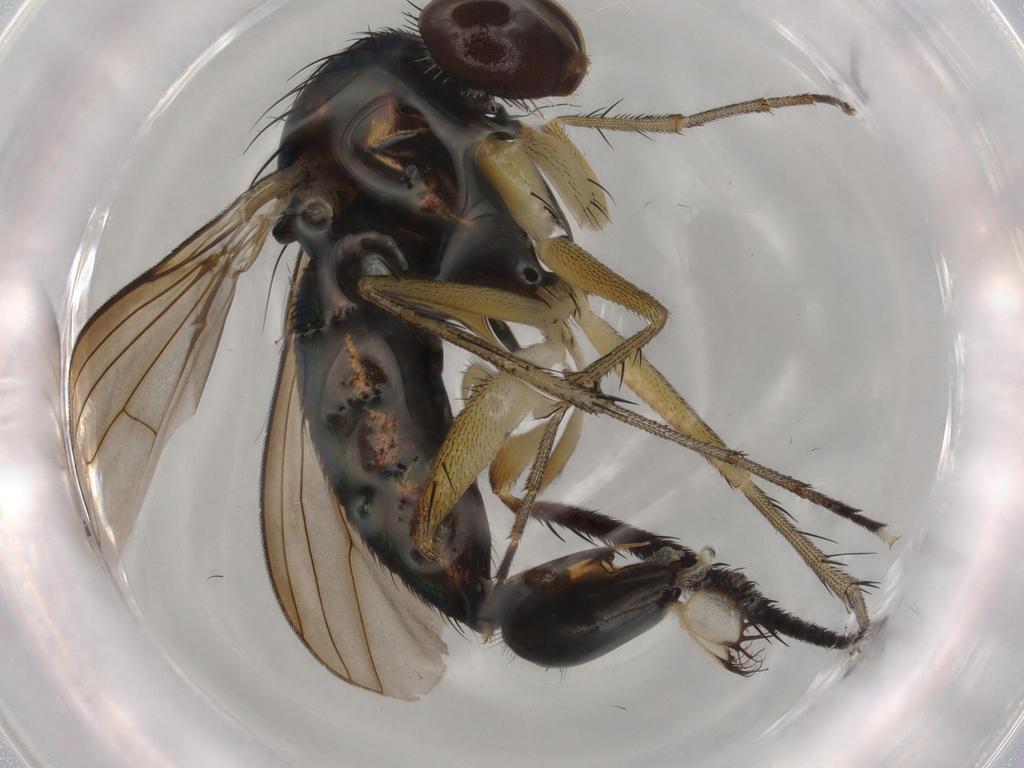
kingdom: Animalia
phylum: Arthropoda
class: Insecta
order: Diptera
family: Dolichopodidae
